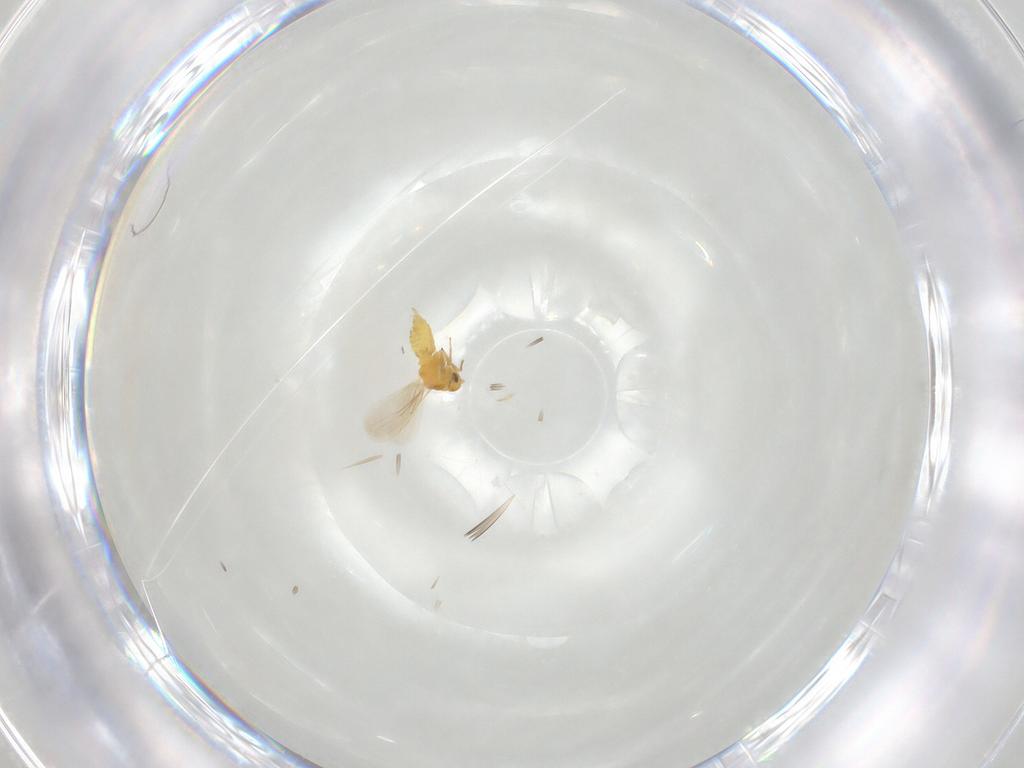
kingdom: Animalia
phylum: Arthropoda
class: Insecta
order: Hemiptera
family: Aleyrodidae
